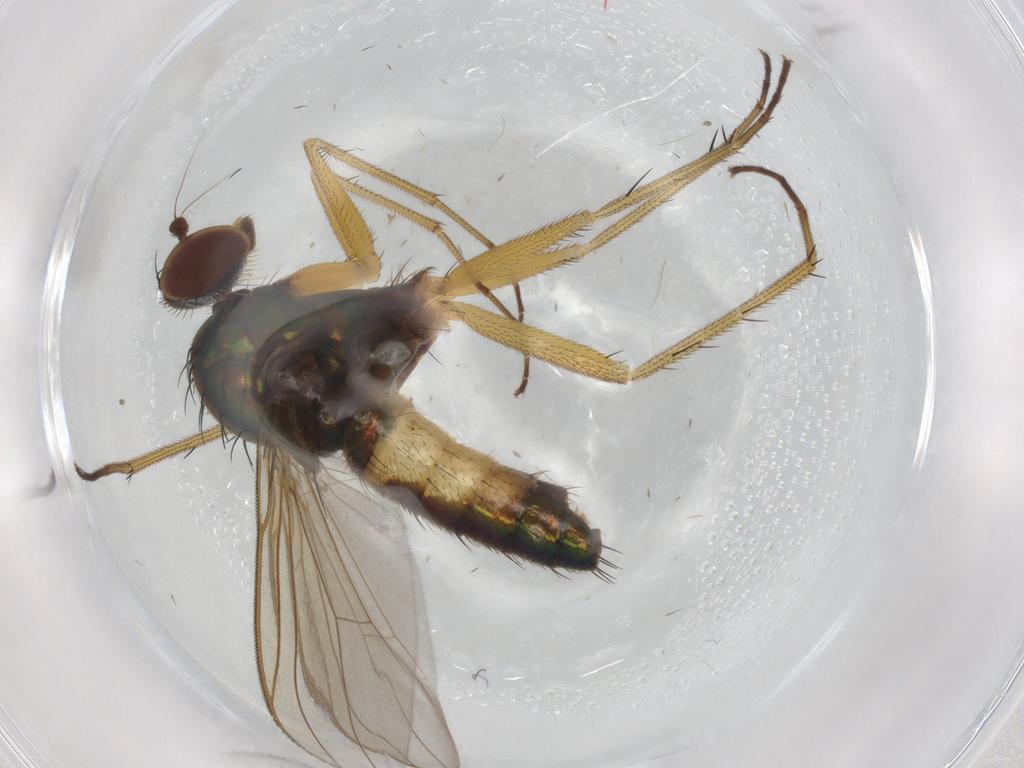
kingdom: Animalia
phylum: Arthropoda
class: Insecta
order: Diptera
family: Dolichopodidae
